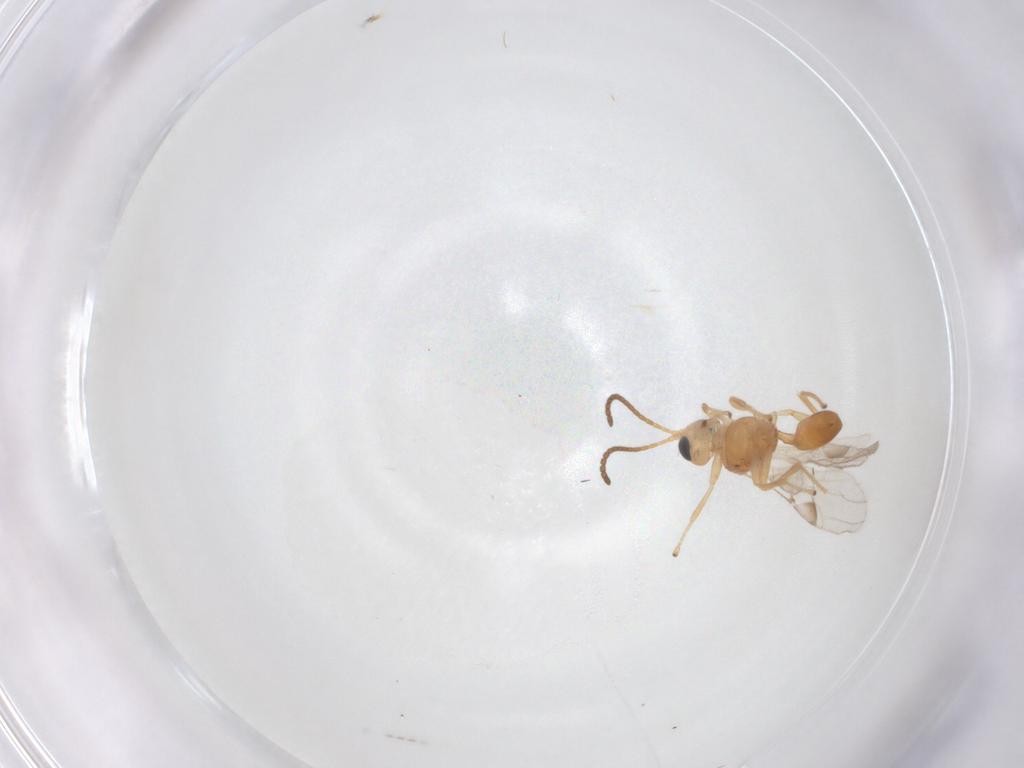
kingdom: Animalia
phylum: Arthropoda
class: Insecta
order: Hymenoptera
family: Braconidae
